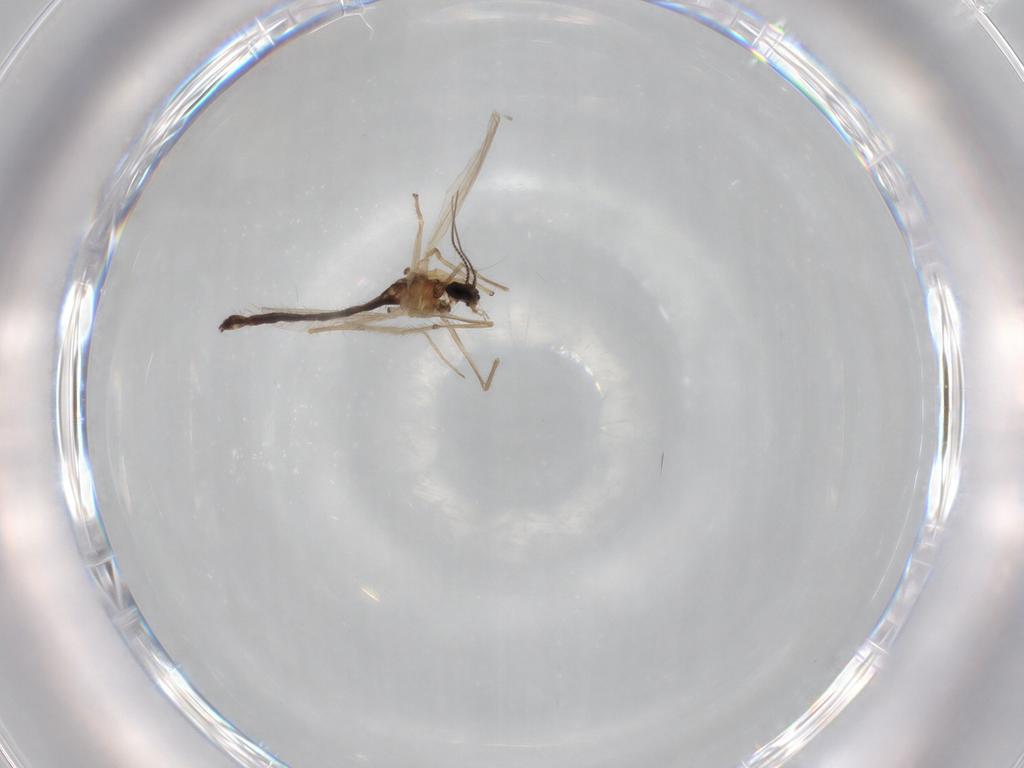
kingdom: Animalia
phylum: Arthropoda
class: Insecta
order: Diptera
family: Chironomidae
